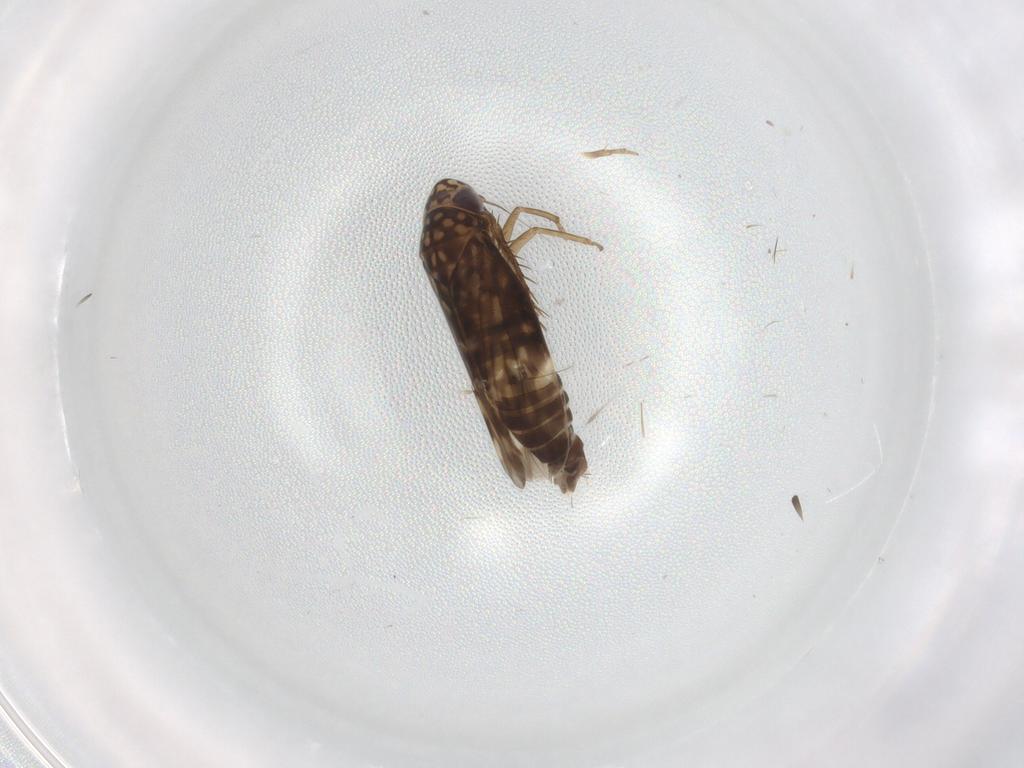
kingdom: Animalia
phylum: Arthropoda
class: Insecta
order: Hemiptera
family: Cicadellidae
